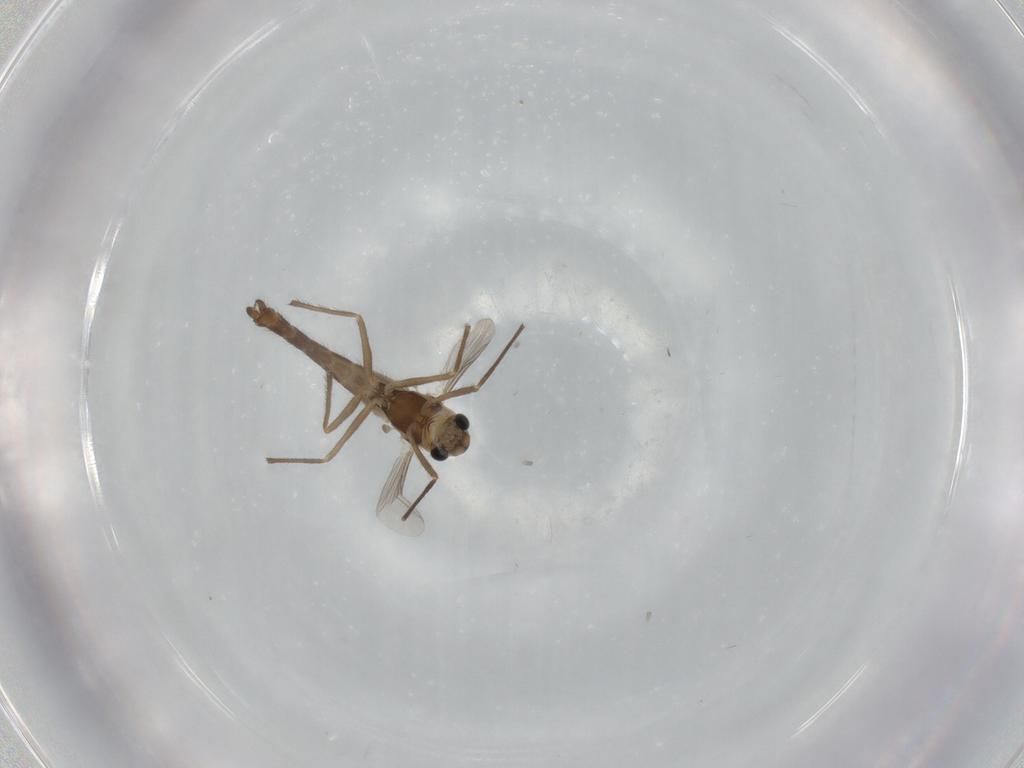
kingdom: Animalia
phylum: Arthropoda
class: Insecta
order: Diptera
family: Chironomidae
